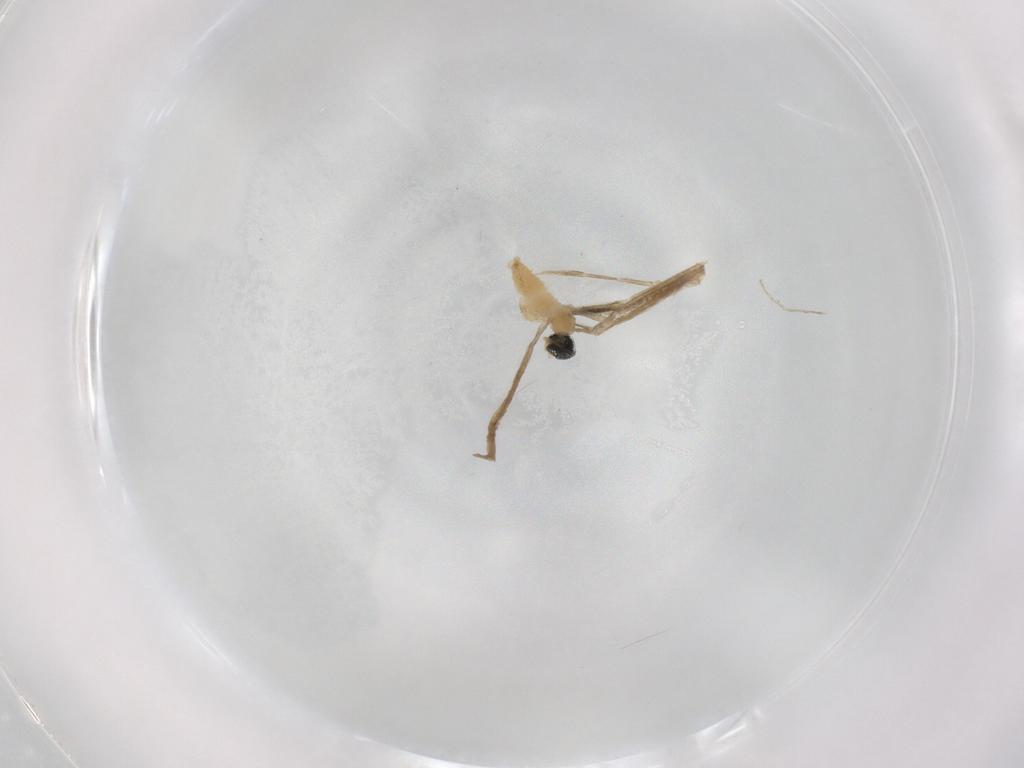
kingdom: Animalia
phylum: Arthropoda
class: Insecta
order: Diptera
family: Cecidomyiidae
